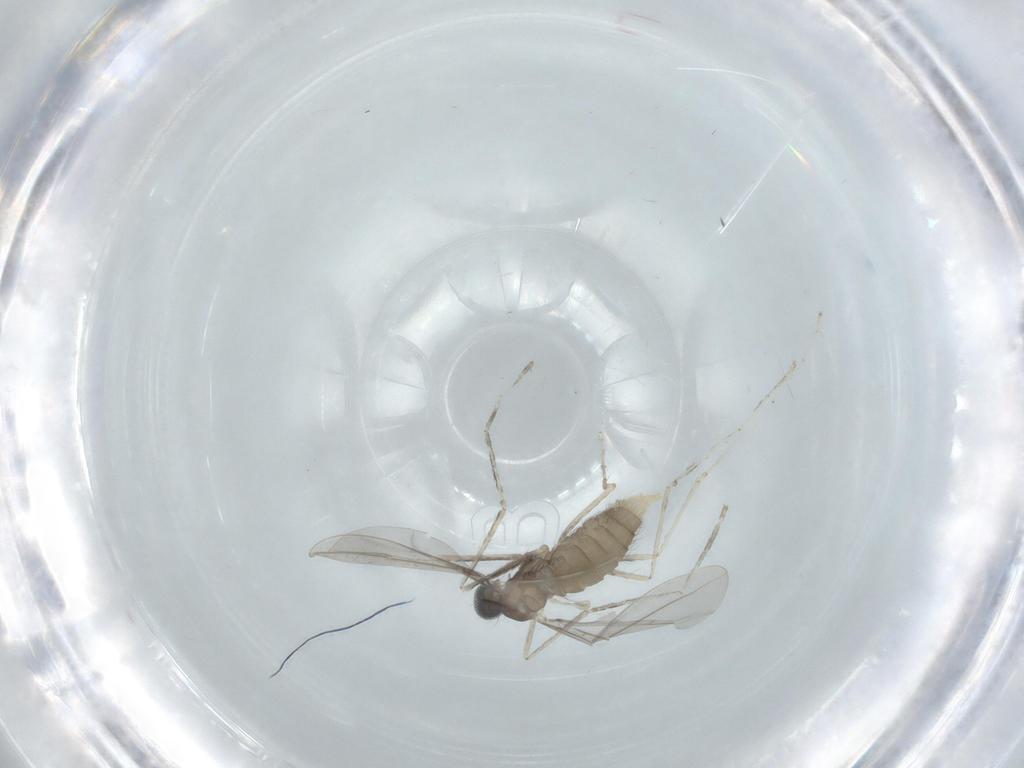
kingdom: Animalia
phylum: Arthropoda
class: Insecta
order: Diptera
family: Cecidomyiidae
